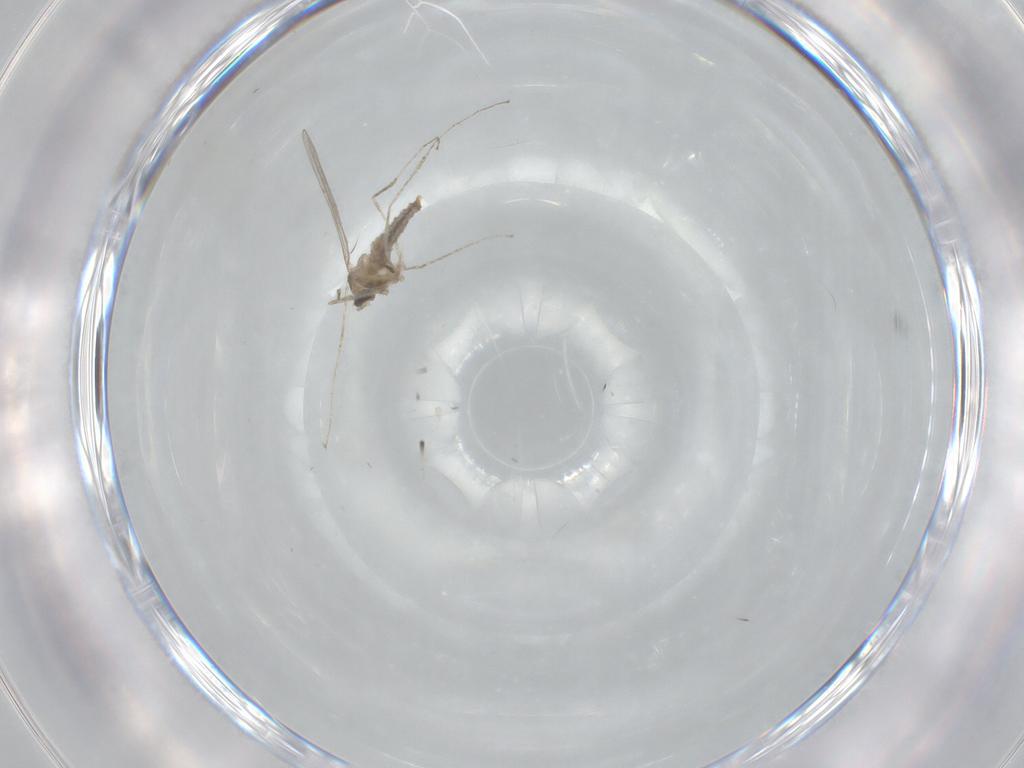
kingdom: Animalia
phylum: Arthropoda
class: Insecta
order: Diptera
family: Cecidomyiidae
